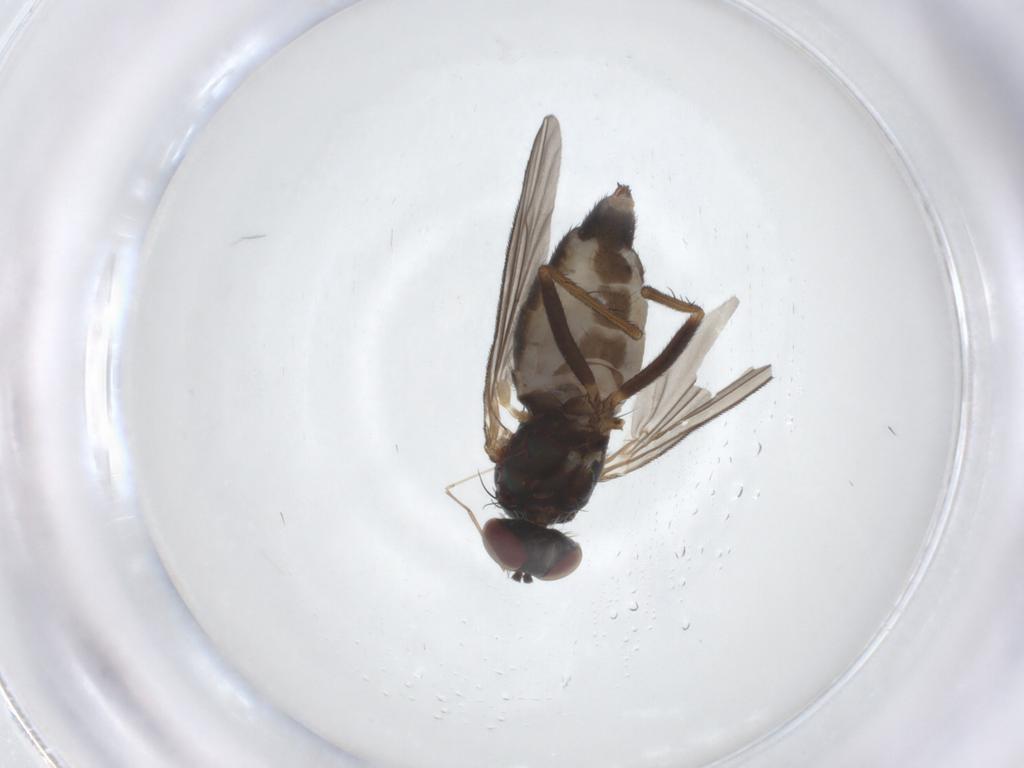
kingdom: Animalia
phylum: Arthropoda
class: Insecta
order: Diptera
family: Dolichopodidae
